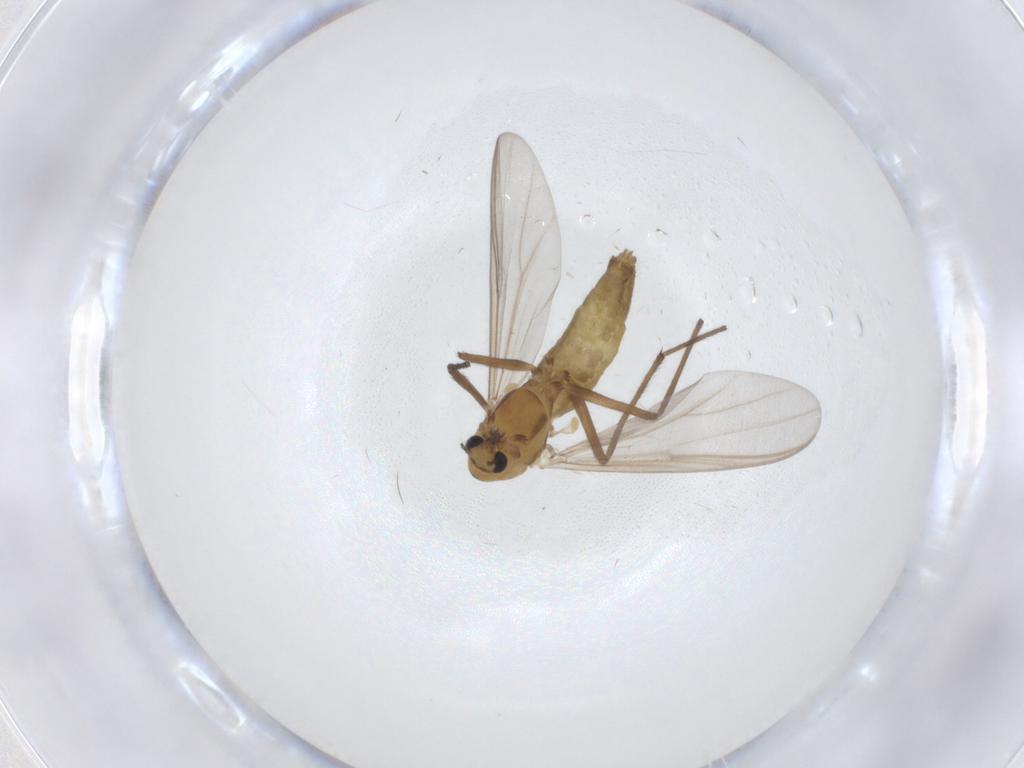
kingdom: Animalia
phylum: Arthropoda
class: Insecta
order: Diptera
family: Chironomidae
